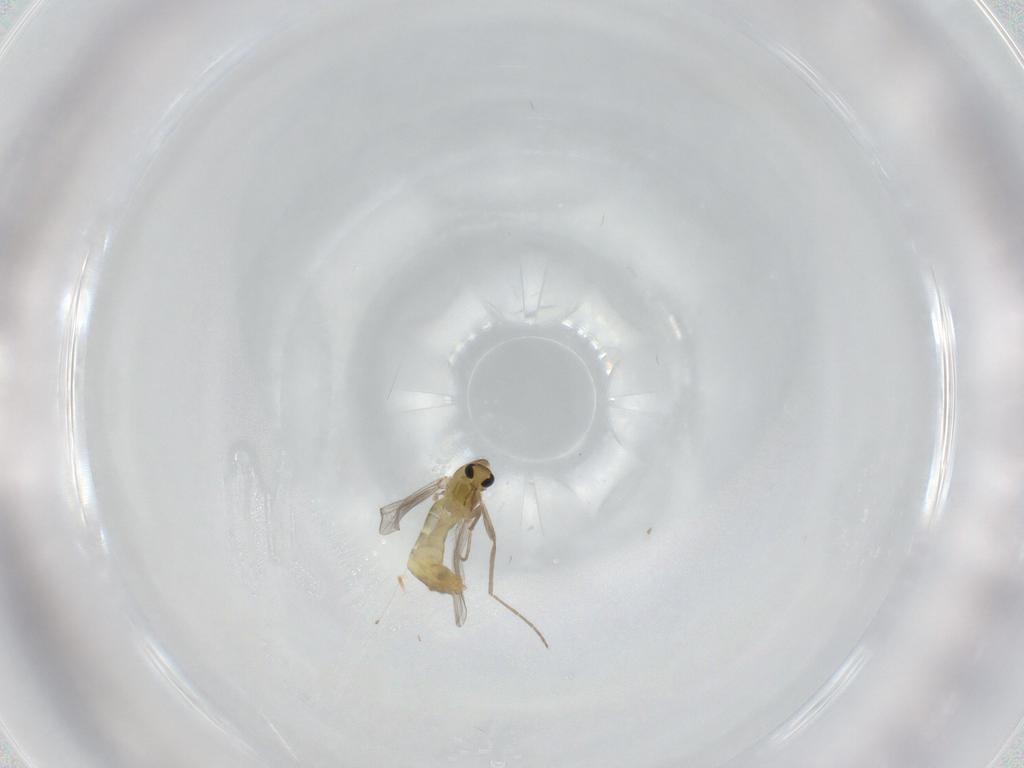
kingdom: Animalia
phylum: Arthropoda
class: Insecta
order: Diptera
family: Chironomidae
